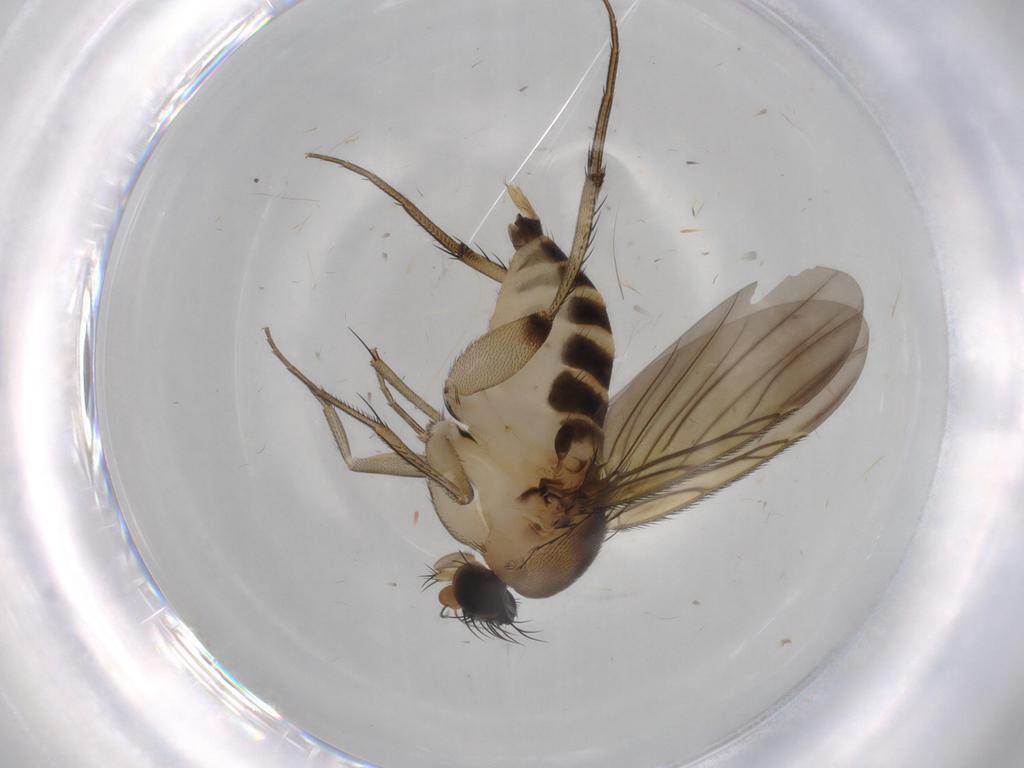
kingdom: Animalia
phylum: Arthropoda
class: Insecta
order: Diptera
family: Phoridae
